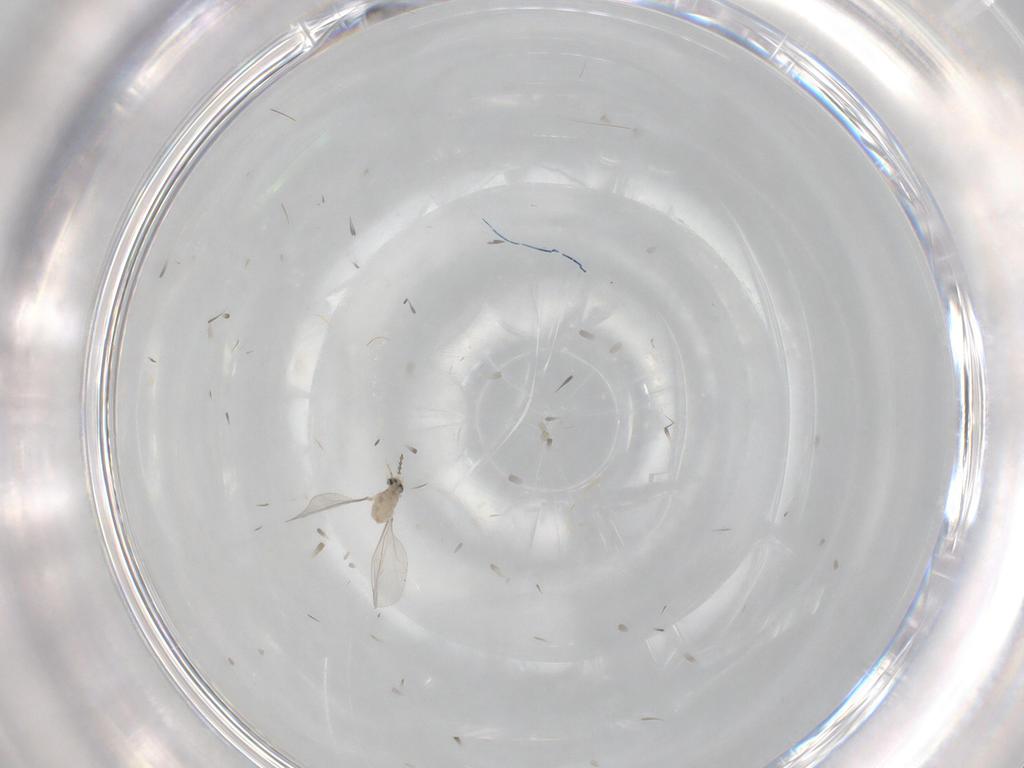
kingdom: Animalia
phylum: Arthropoda
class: Insecta
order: Diptera
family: Cecidomyiidae
